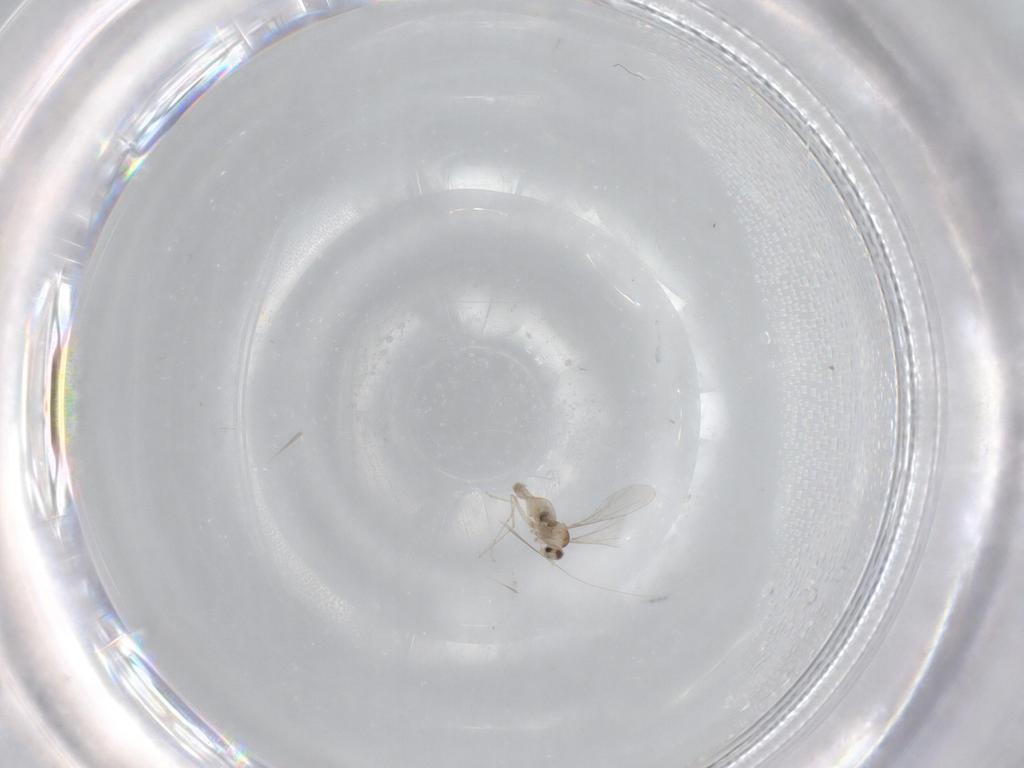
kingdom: Animalia
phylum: Arthropoda
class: Insecta
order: Diptera
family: Cecidomyiidae
